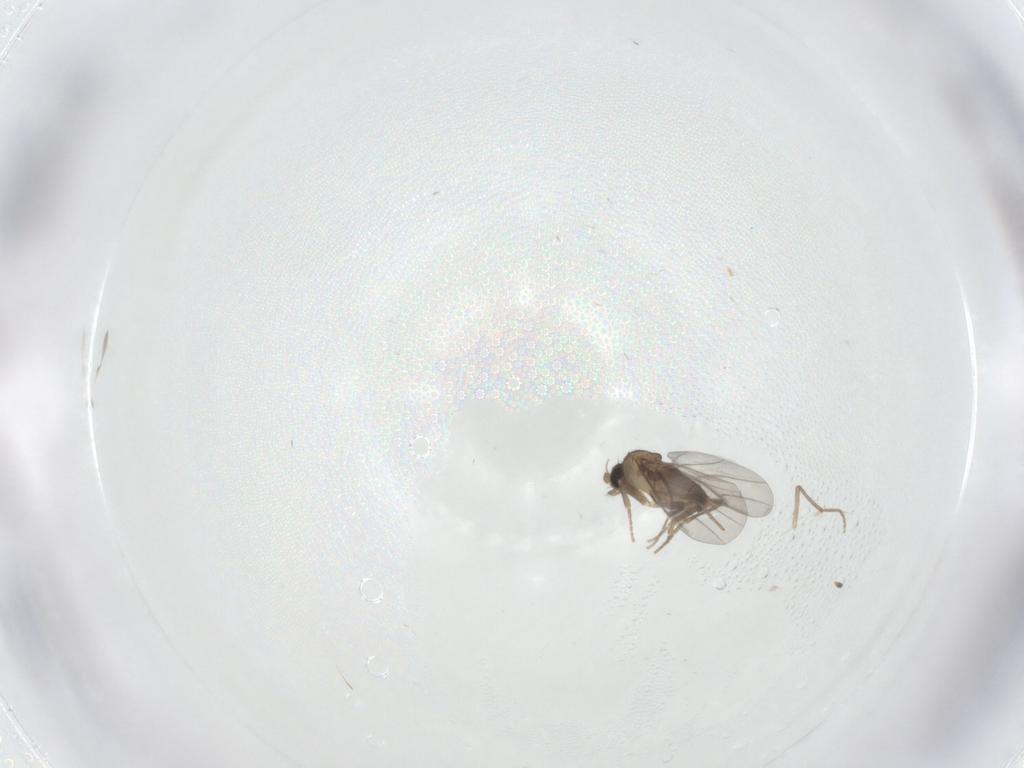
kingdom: Animalia
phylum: Arthropoda
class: Insecta
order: Diptera
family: Chironomidae
